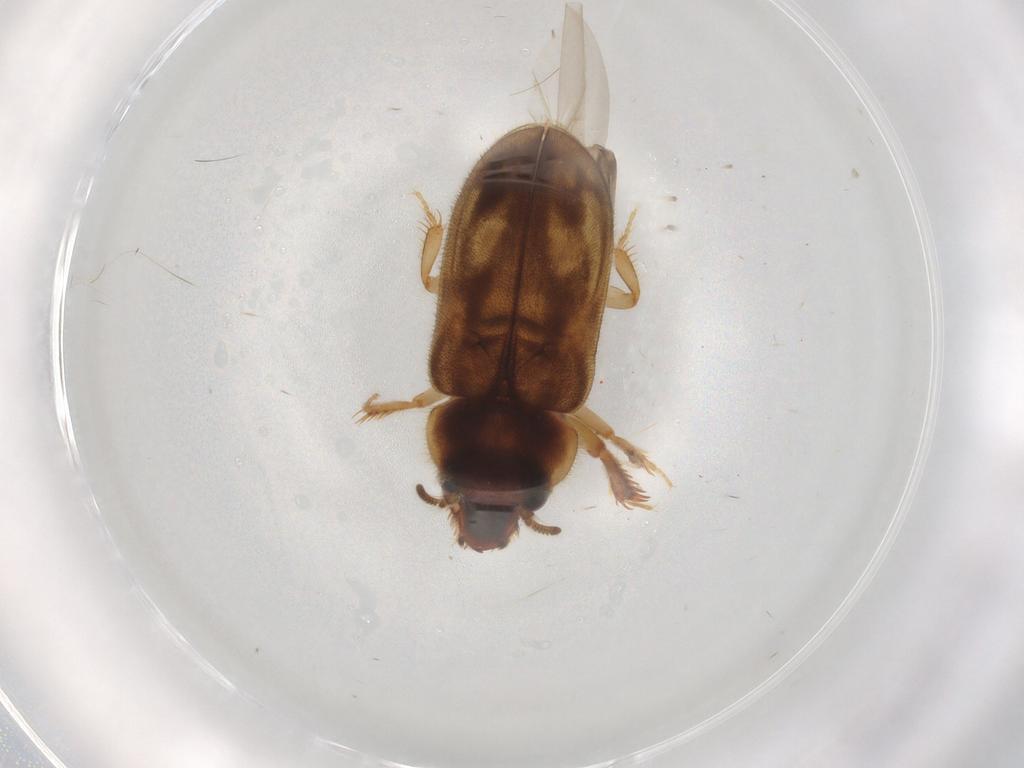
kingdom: Animalia
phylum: Arthropoda
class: Insecta
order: Coleoptera
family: Heteroceridae
